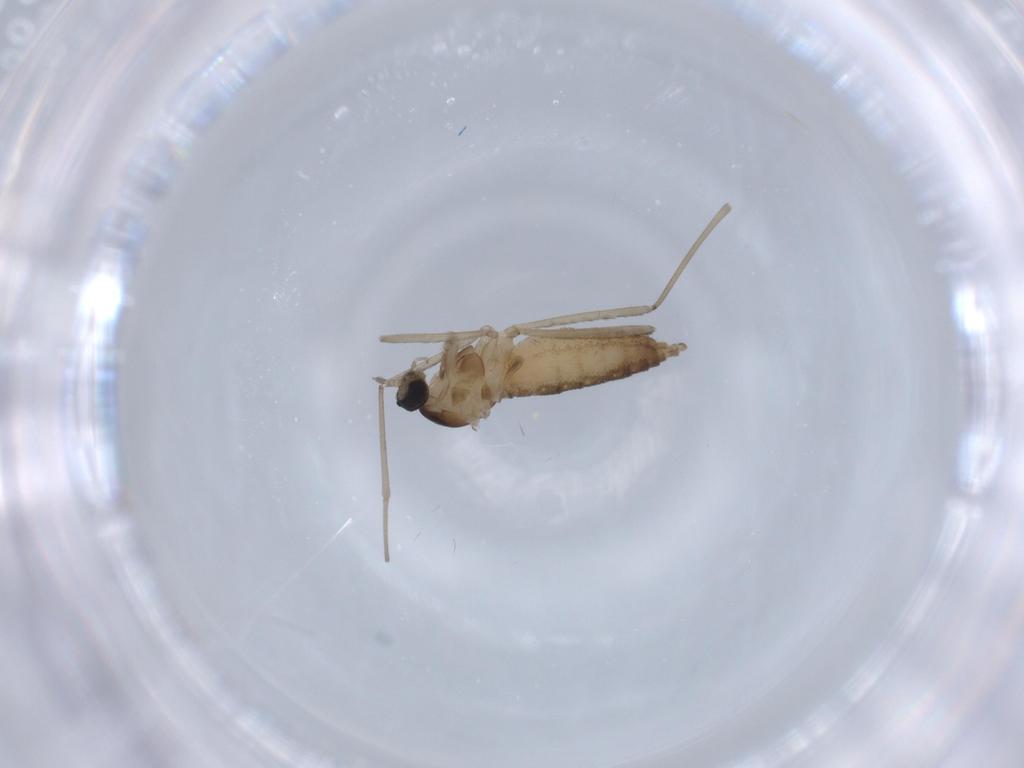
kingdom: Animalia
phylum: Arthropoda
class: Insecta
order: Diptera
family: Cecidomyiidae
